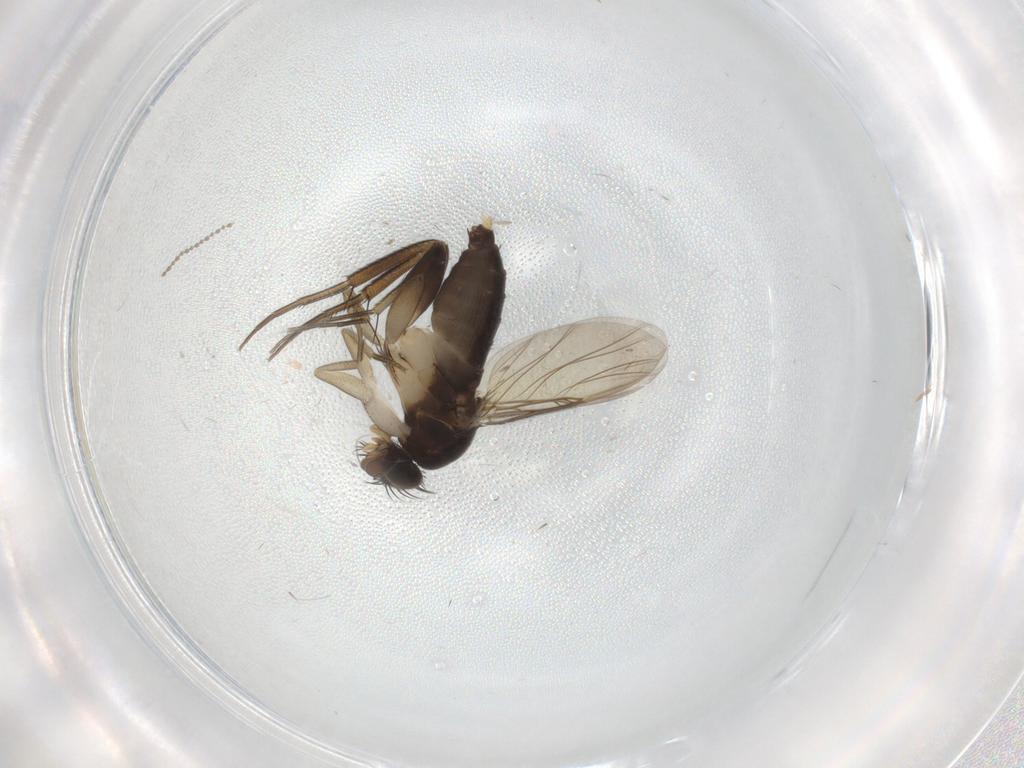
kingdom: Animalia
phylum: Arthropoda
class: Insecta
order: Diptera
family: Phoridae
